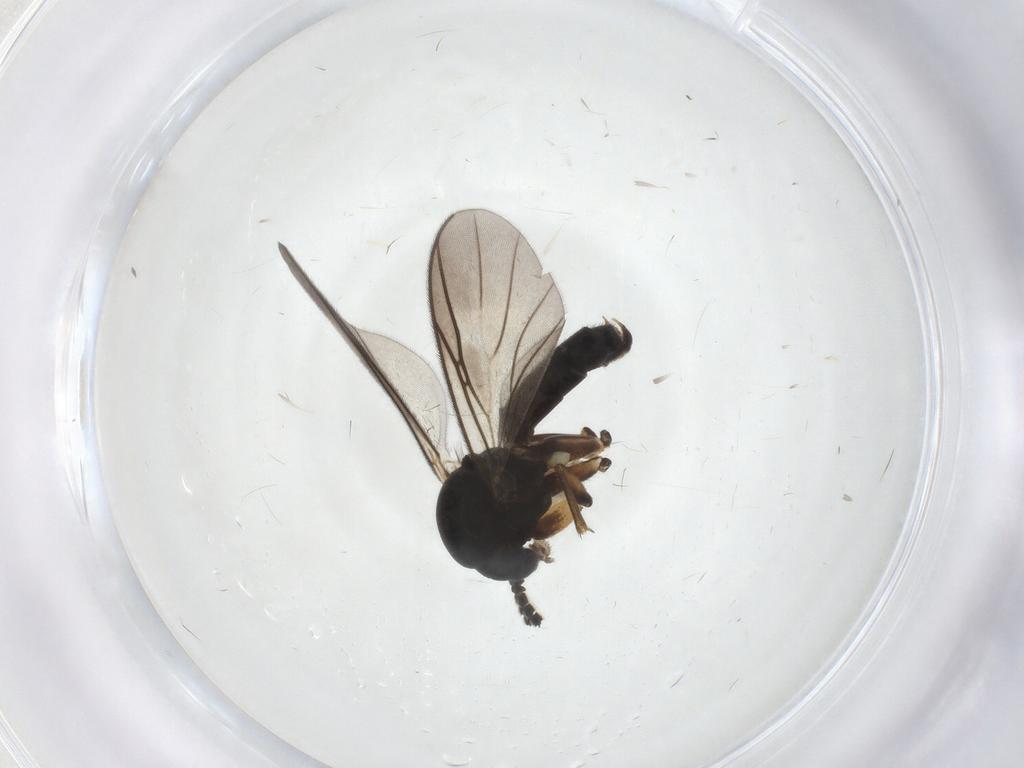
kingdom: Animalia
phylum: Arthropoda
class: Insecta
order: Diptera
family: Mycetophilidae
